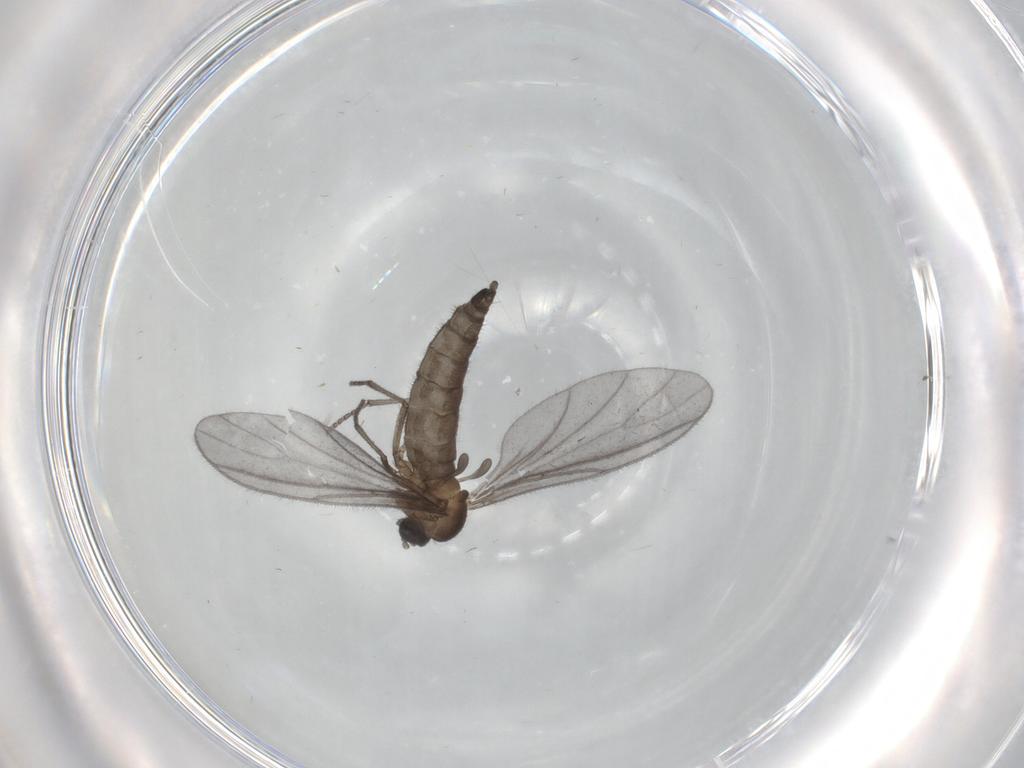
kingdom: Animalia
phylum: Arthropoda
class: Insecta
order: Diptera
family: Sciaridae
